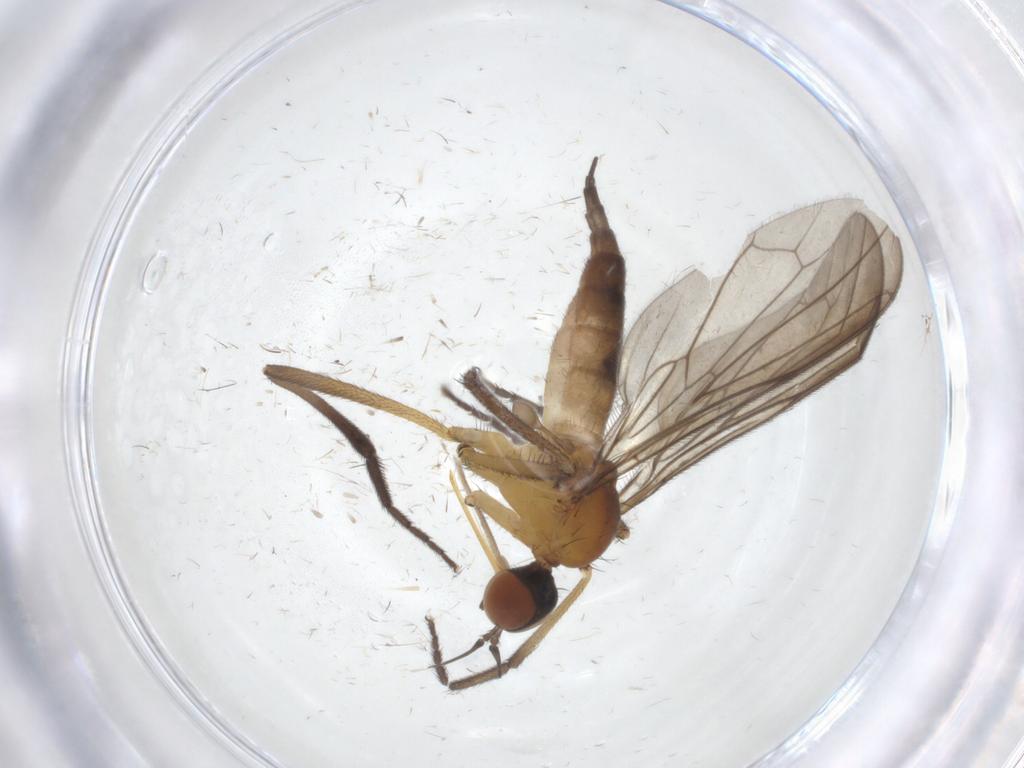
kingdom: Animalia
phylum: Arthropoda
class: Insecta
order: Diptera
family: Empididae
